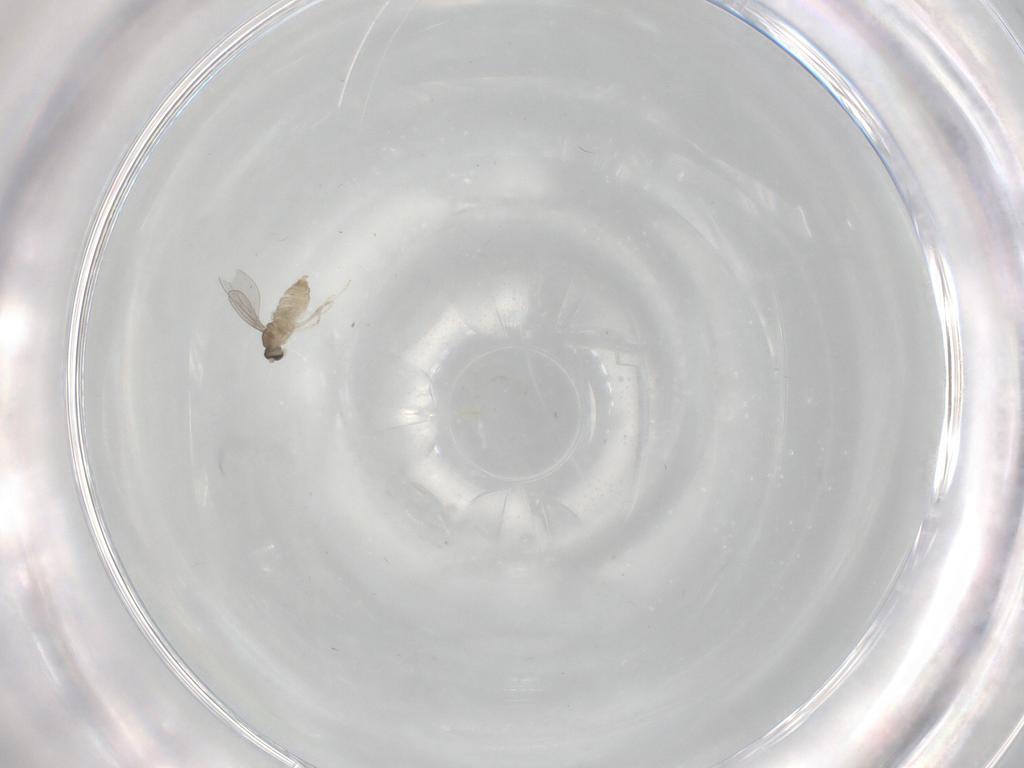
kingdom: Animalia
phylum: Arthropoda
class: Insecta
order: Diptera
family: Cecidomyiidae
